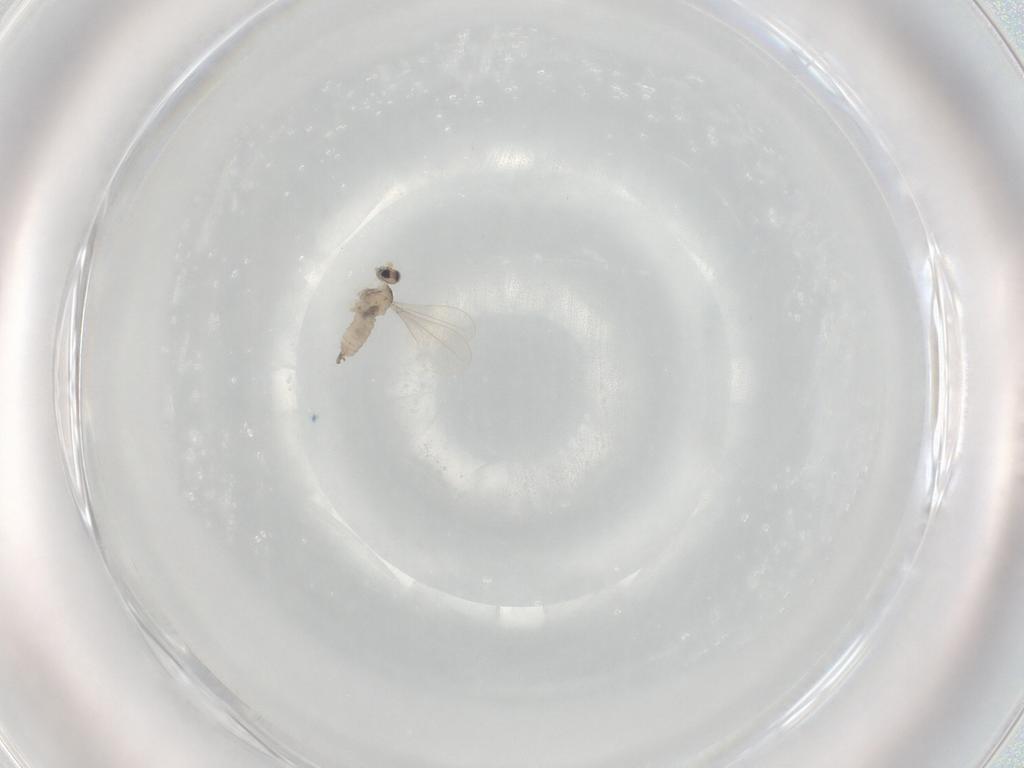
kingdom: Animalia
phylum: Arthropoda
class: Insecta
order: Diptera
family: Cecidomyiidae
